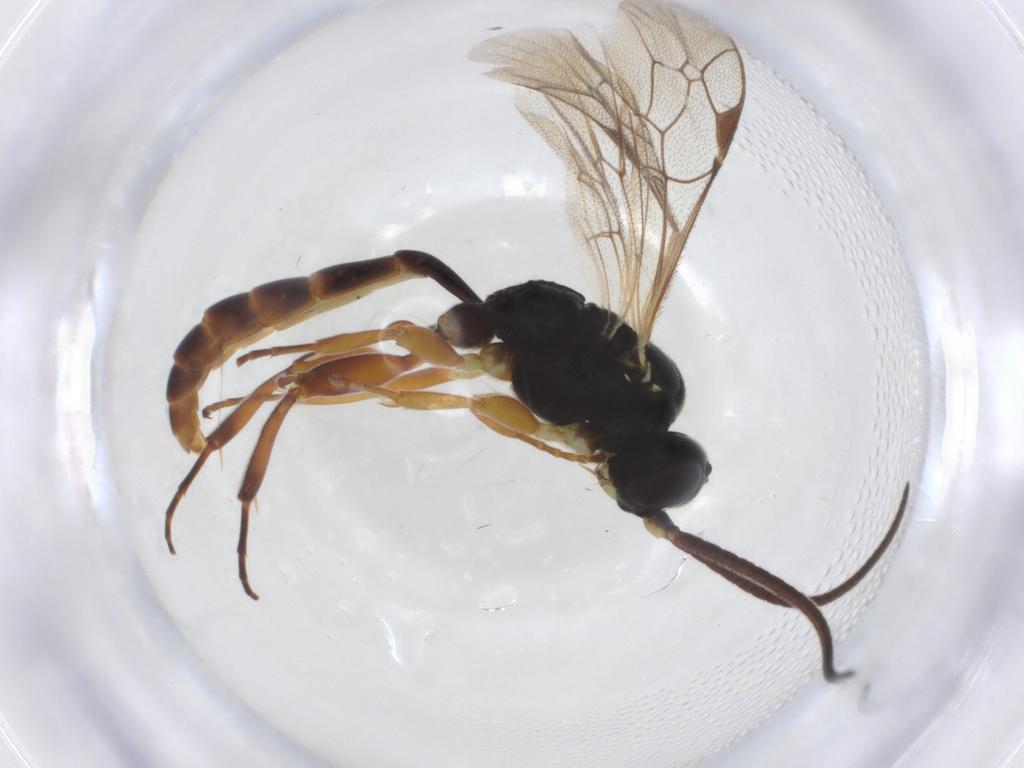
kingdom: Animalia
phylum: Arthropoda
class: Insecta
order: Hymenoptera
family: Ichneumonidae
